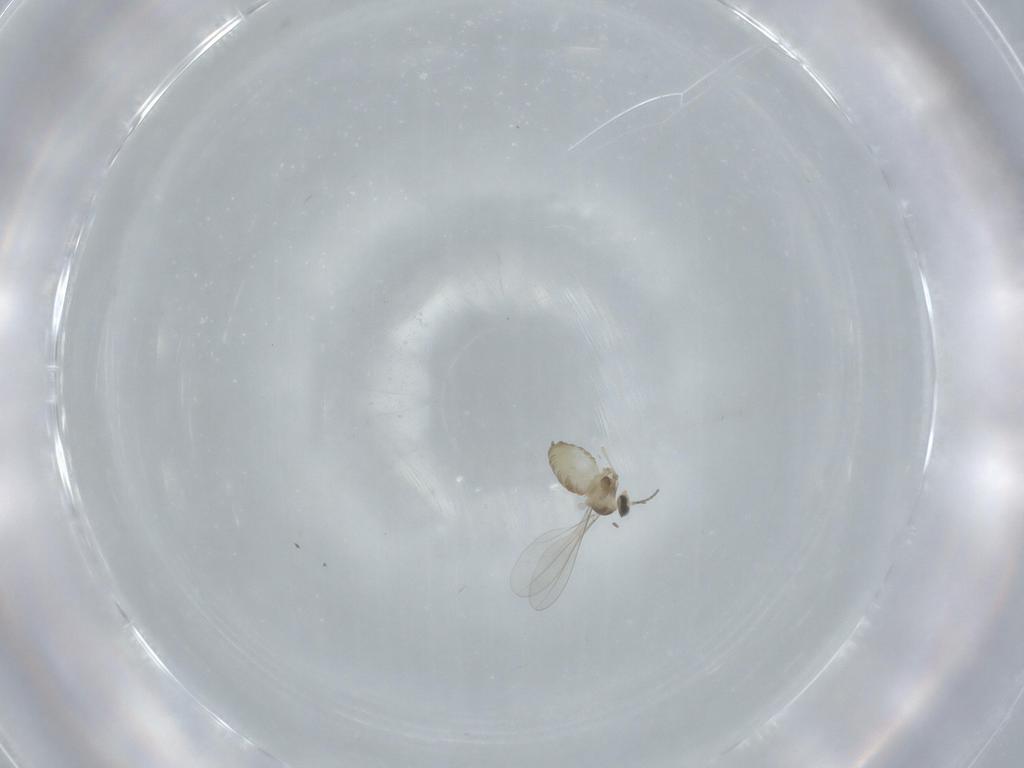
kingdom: Animalia
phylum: Arthropoda
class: Insecta
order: Diptera
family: Cecidomyiidae
